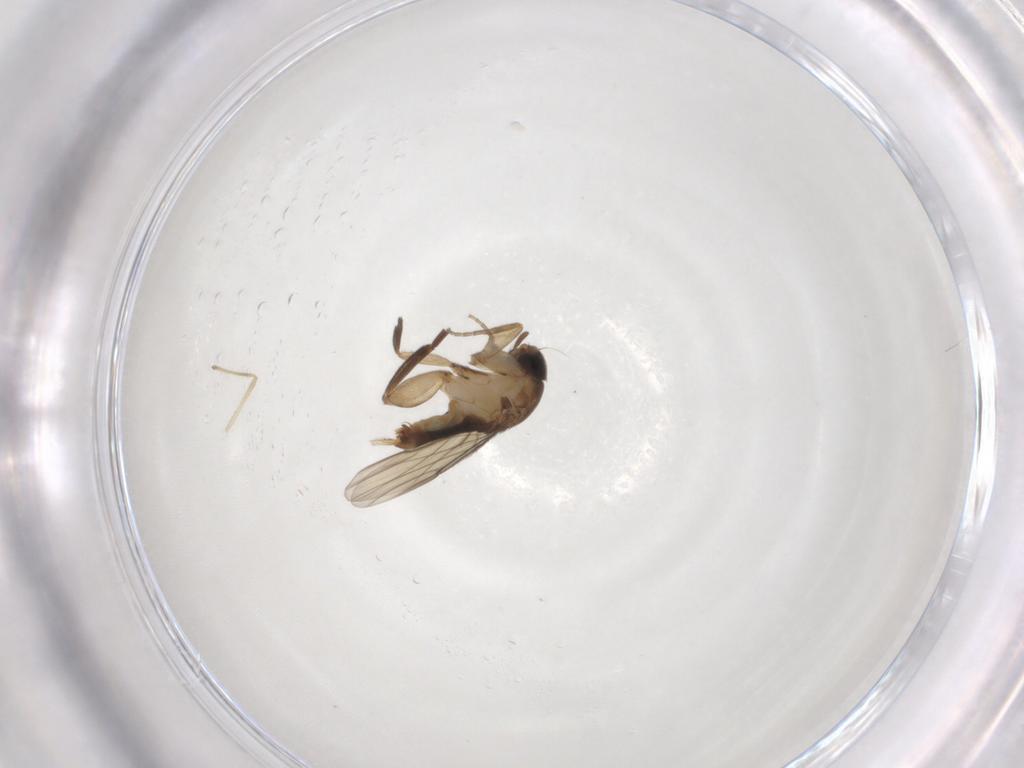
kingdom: Animalia
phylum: Arthropoda
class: Insecta
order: Diptera
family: Phoridae
